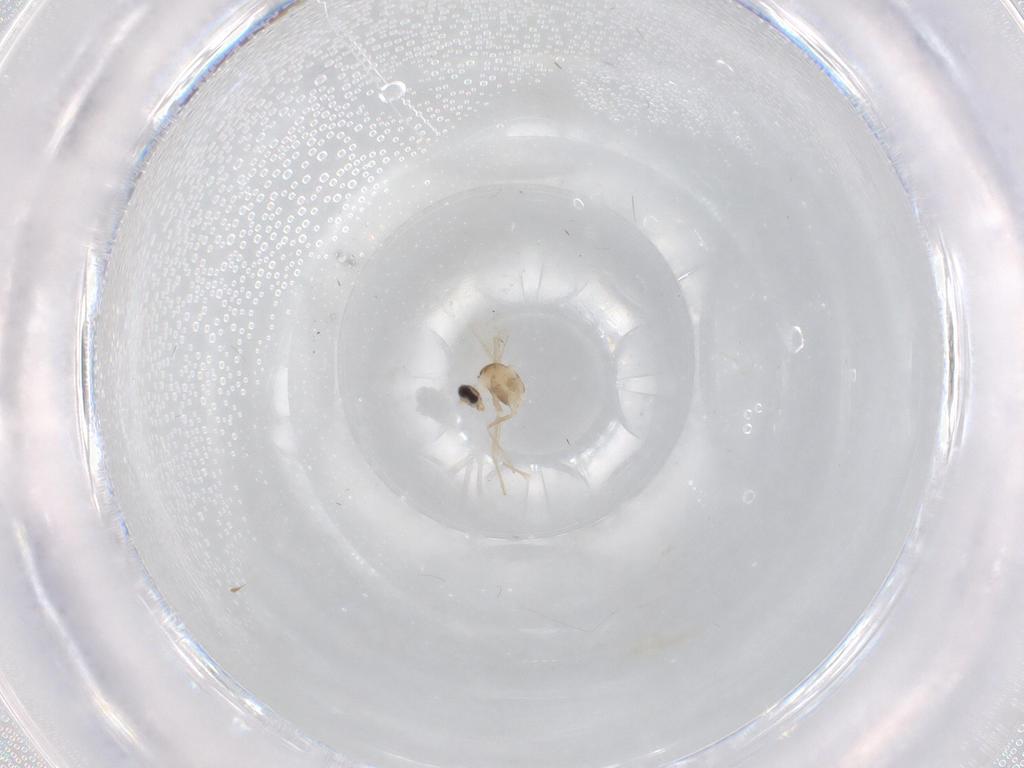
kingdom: Animalia
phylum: Arthropoda
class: Insecta
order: Diptera
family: Cecidomyiidae
